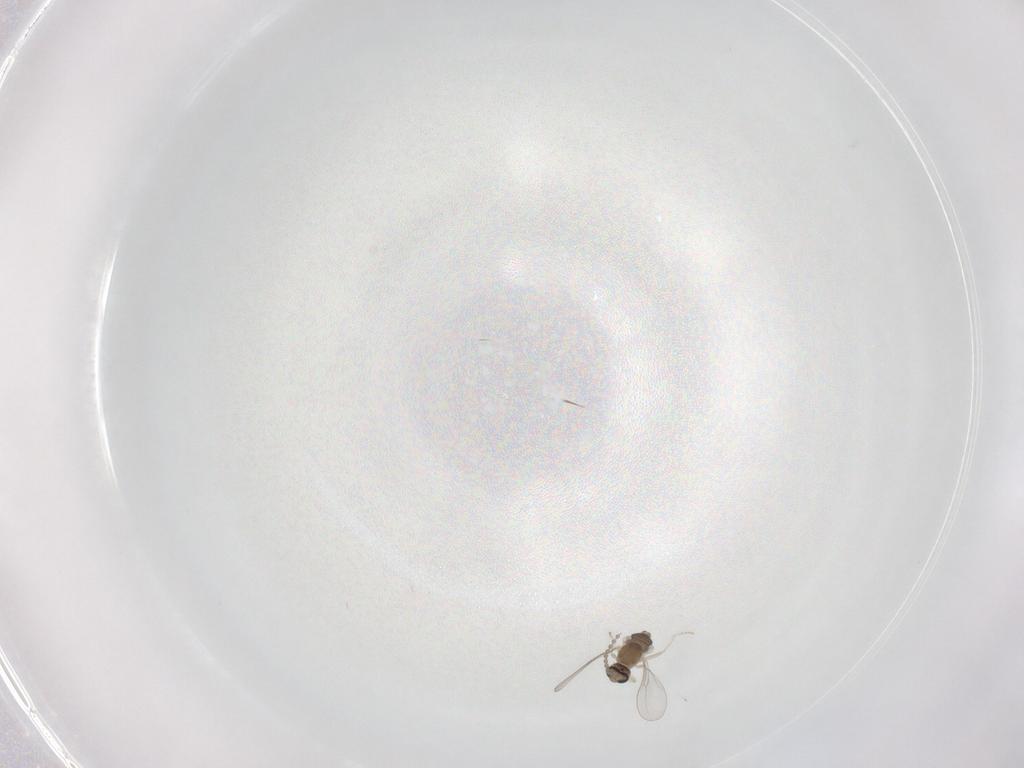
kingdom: Animalia
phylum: Arthropoda
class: Insecta
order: Diptera
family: Cecidomyiidae
